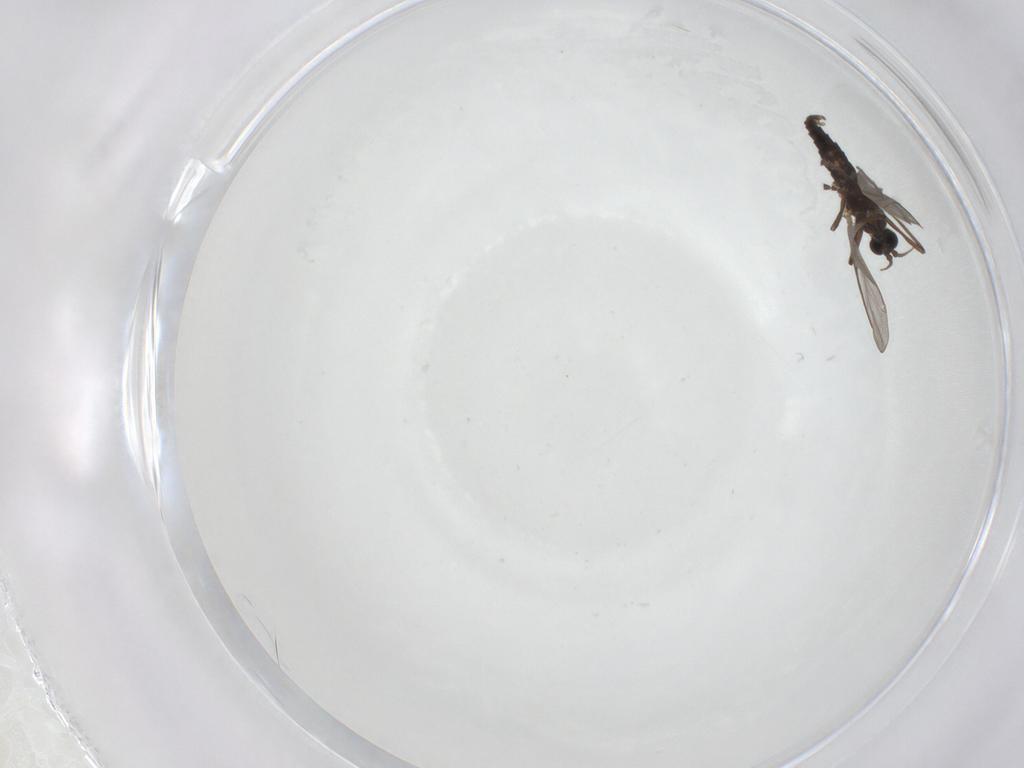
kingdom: Animalia
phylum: Arthropoda
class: Insecta
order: Diptera
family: Cecidomyiidae
